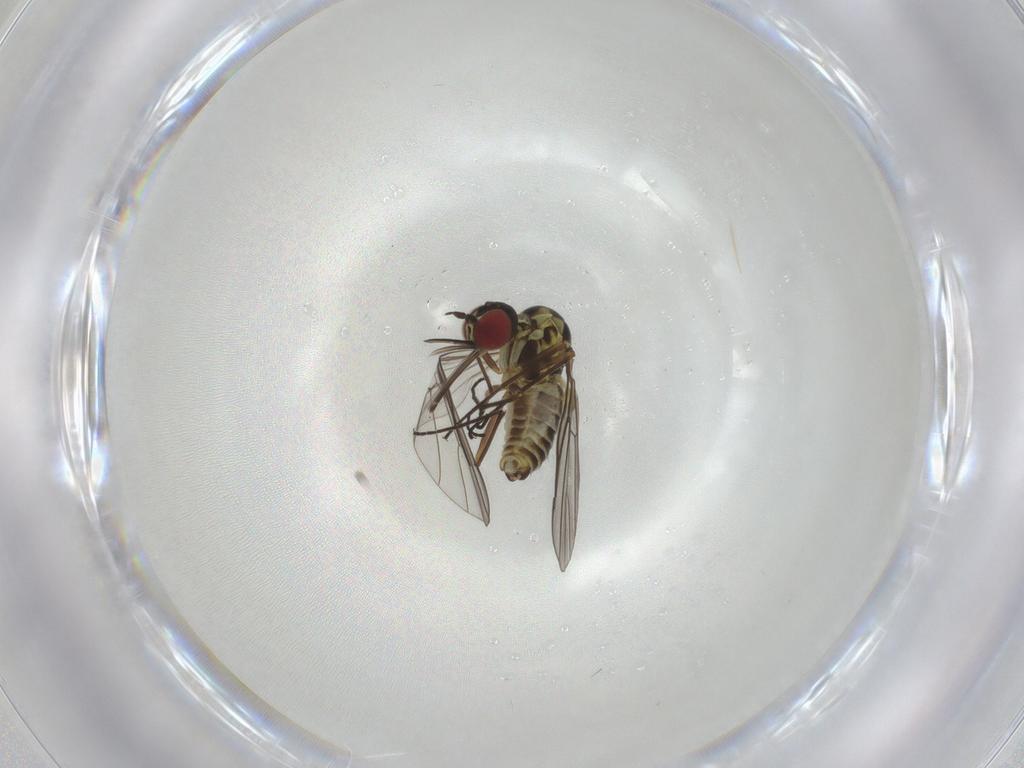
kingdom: Animalia
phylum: Arthropoda
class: Insecta
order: Diptera
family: Bombyliidae
